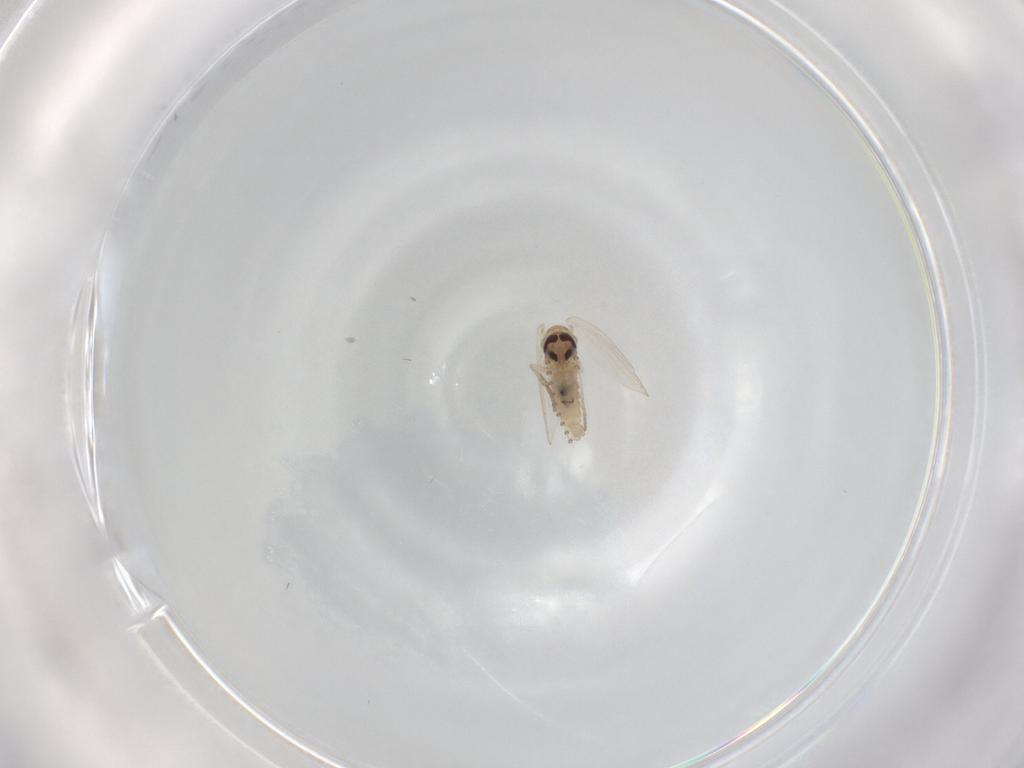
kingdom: Animalia
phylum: Arthropoda
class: Insecta
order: Diptera
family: Psychodidae
